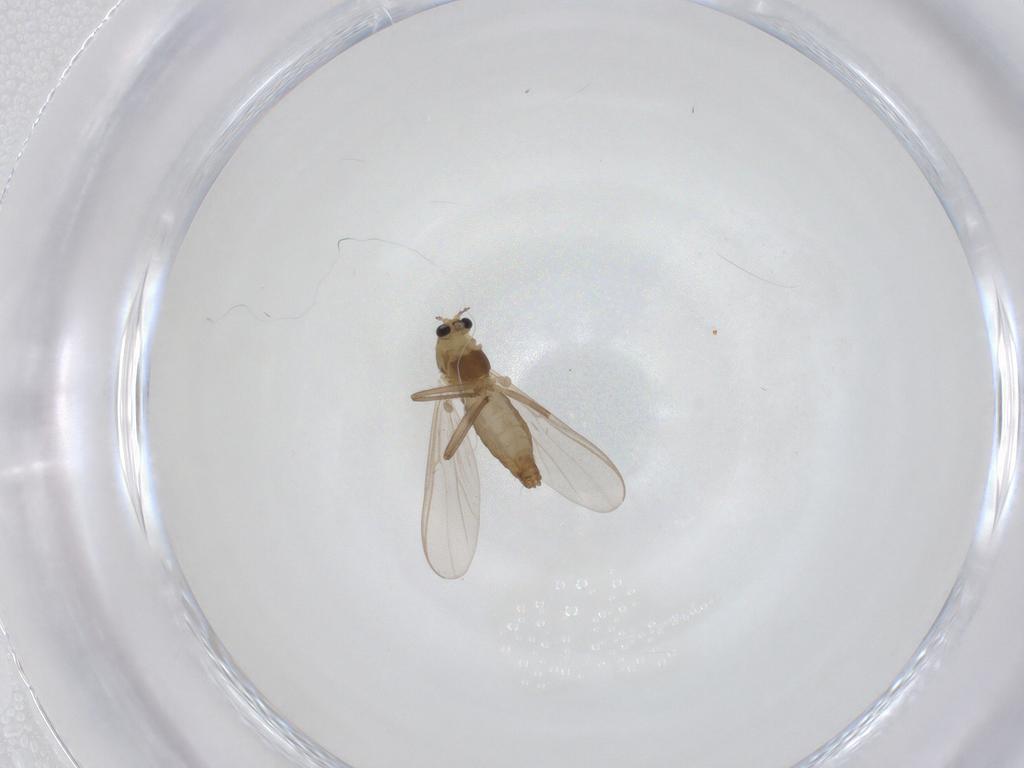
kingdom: Animalia
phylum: Arthropoda
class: Insecta
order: Diptera
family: Chironomidae
